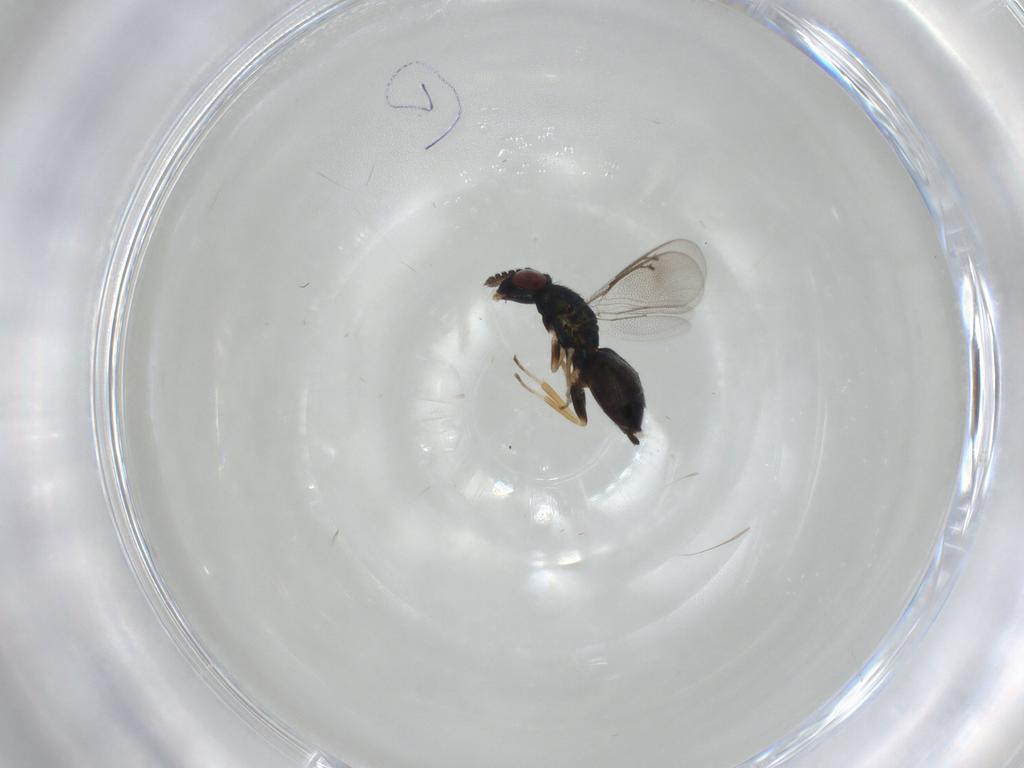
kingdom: Animalia
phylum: Arthropoda
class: Insecta
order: Hymenoptera
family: Eulophidae
